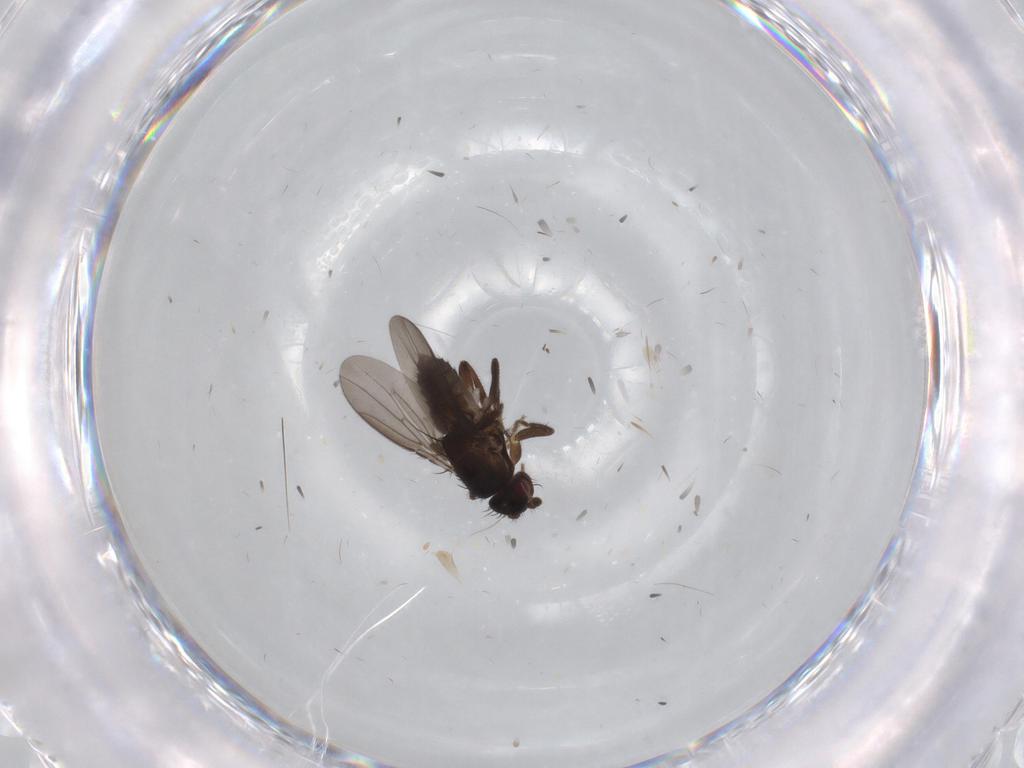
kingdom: Animalia
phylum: Arthropoda
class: Insecta
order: Diptera
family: Sphaeroceridae
